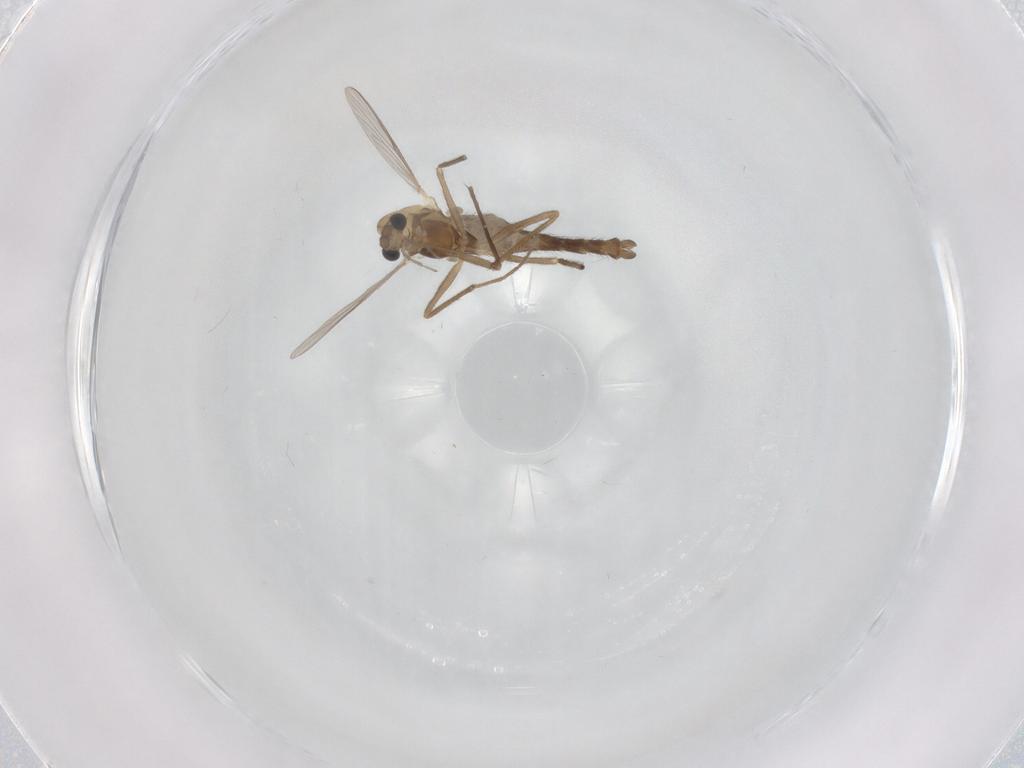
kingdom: Animalia
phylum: Arthropoda
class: Insecta
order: Diptera
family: Chironomidae
